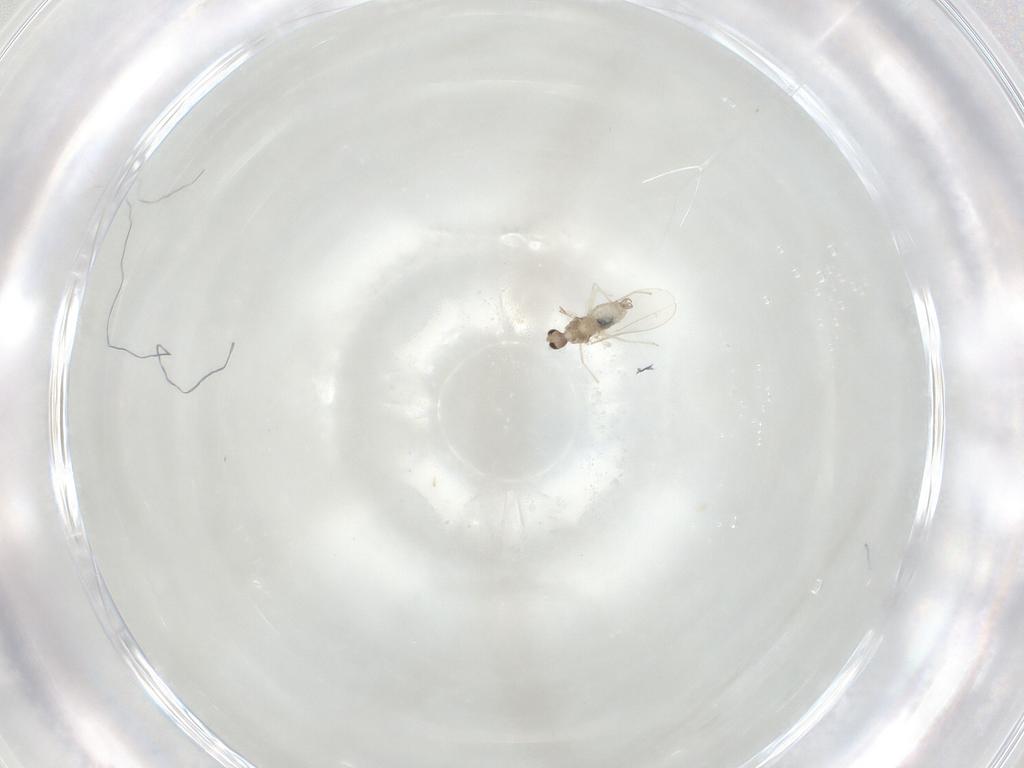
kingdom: Animalia
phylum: Arthropoda
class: Insecta
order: Diptera
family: Cecidomyiidae
